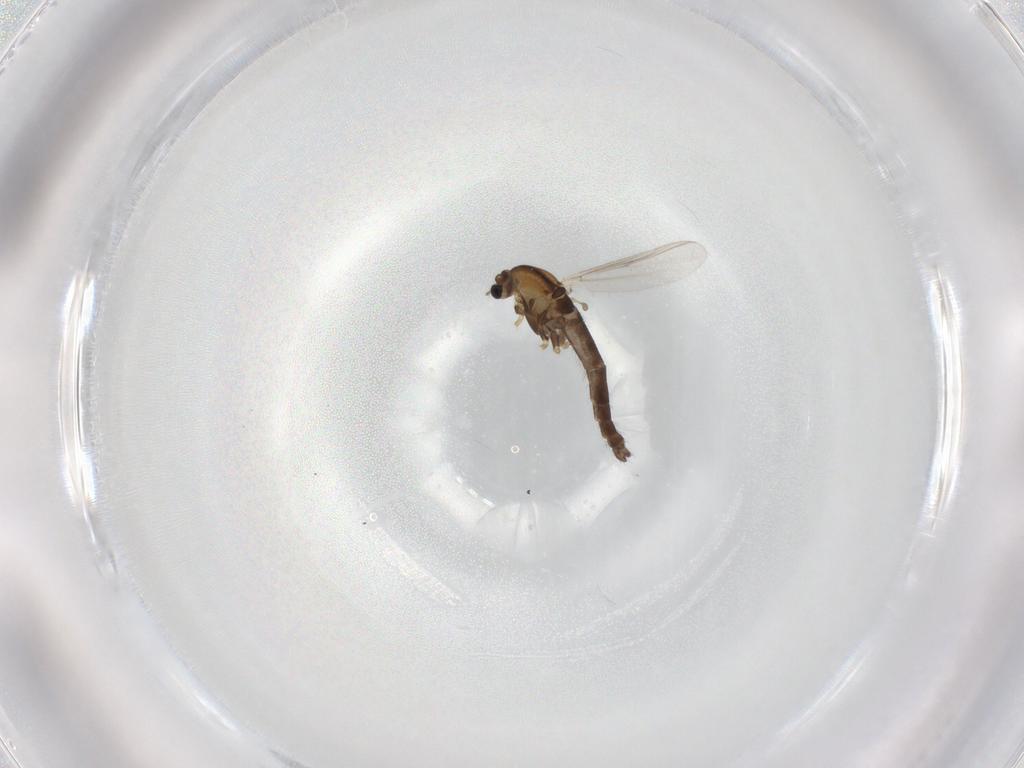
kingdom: Animalia
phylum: Arthropoda
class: Insecta
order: Diptera
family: Chironomidae
